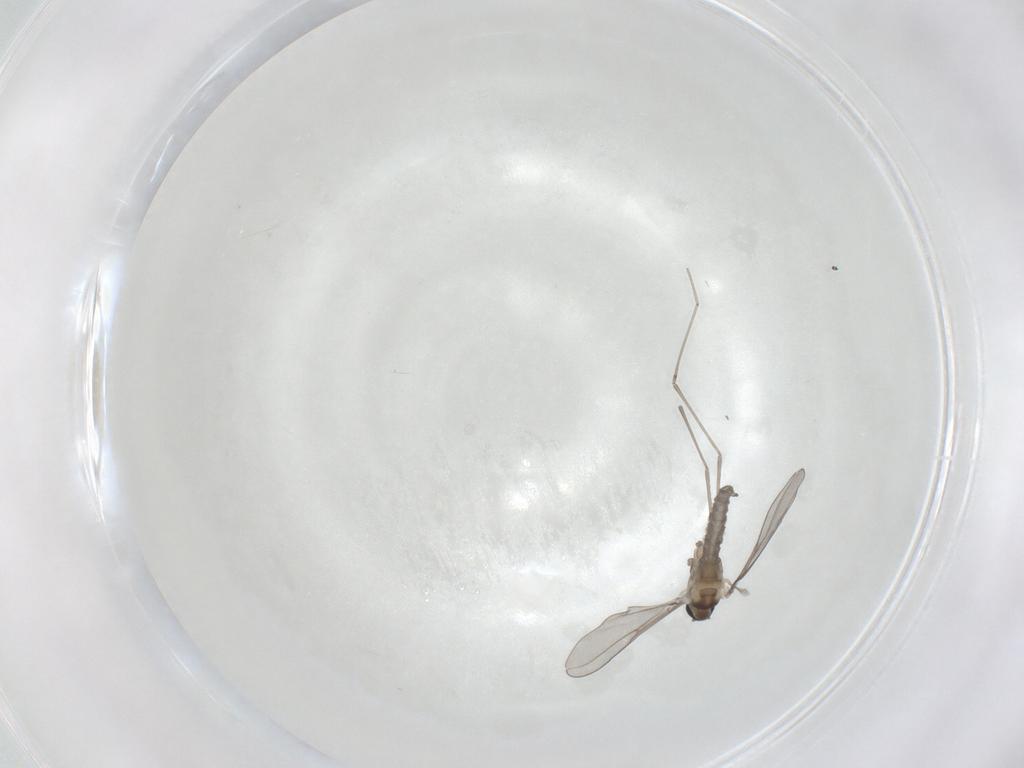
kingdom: Animalia
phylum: Arthropoda
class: Insecta
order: Diptera
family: Cecidomyiidae
